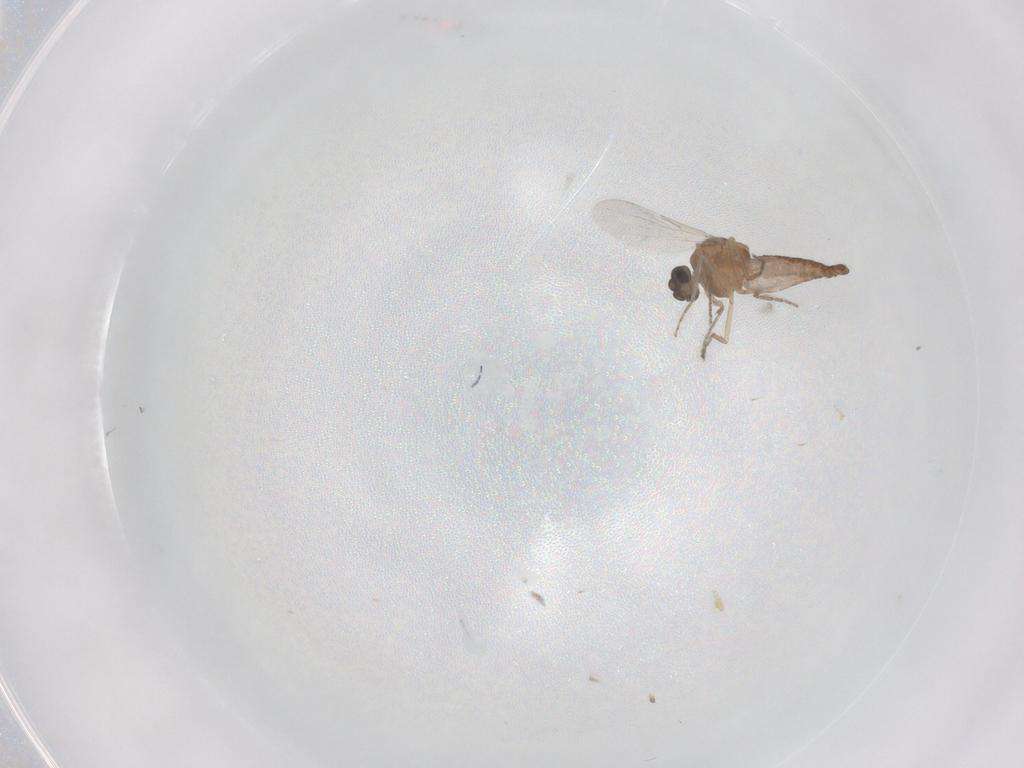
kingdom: Animalia
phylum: Arthropoda
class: Insecta
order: Diptera
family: Ceratopogonidae
